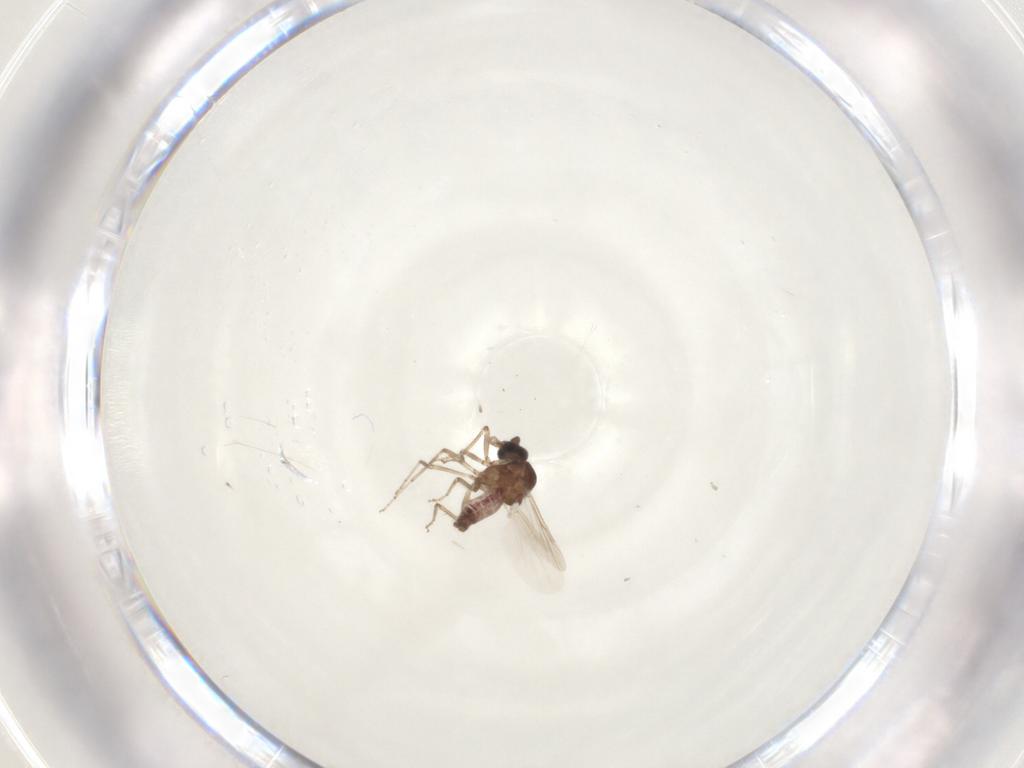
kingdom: Animalia
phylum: Arthropoda
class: Insecta
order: Diptera
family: Ceratopogonidae
